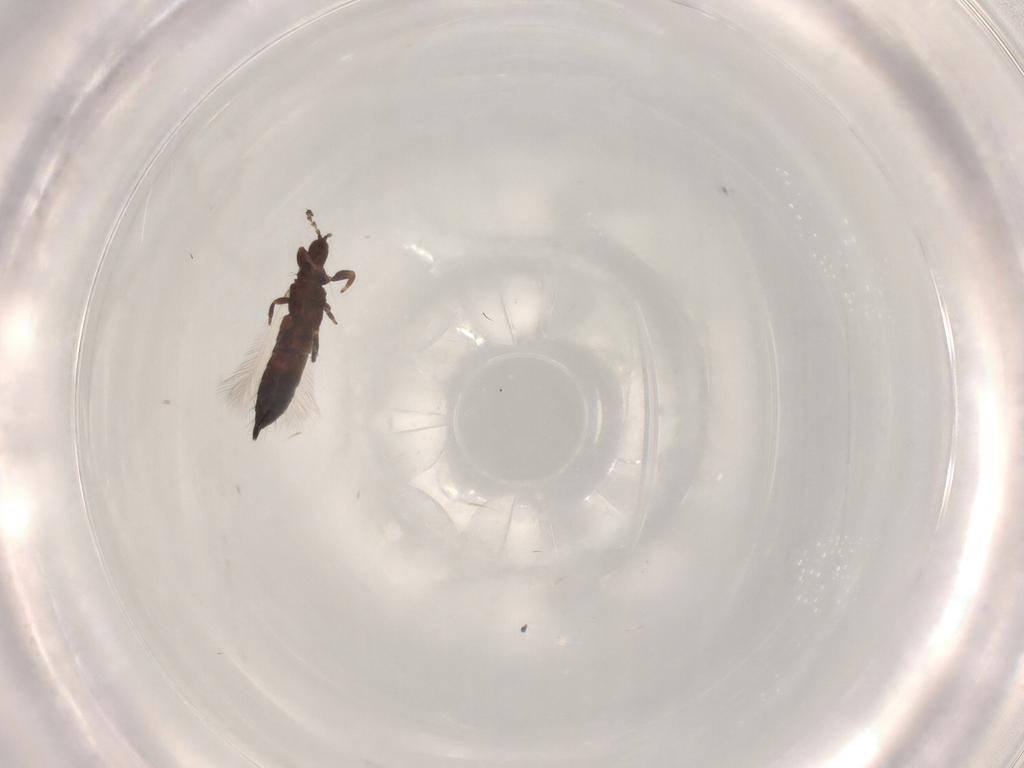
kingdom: Animalia
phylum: Arthropoda
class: Insecta
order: Thysanoptera
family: Phlaeothripidae
